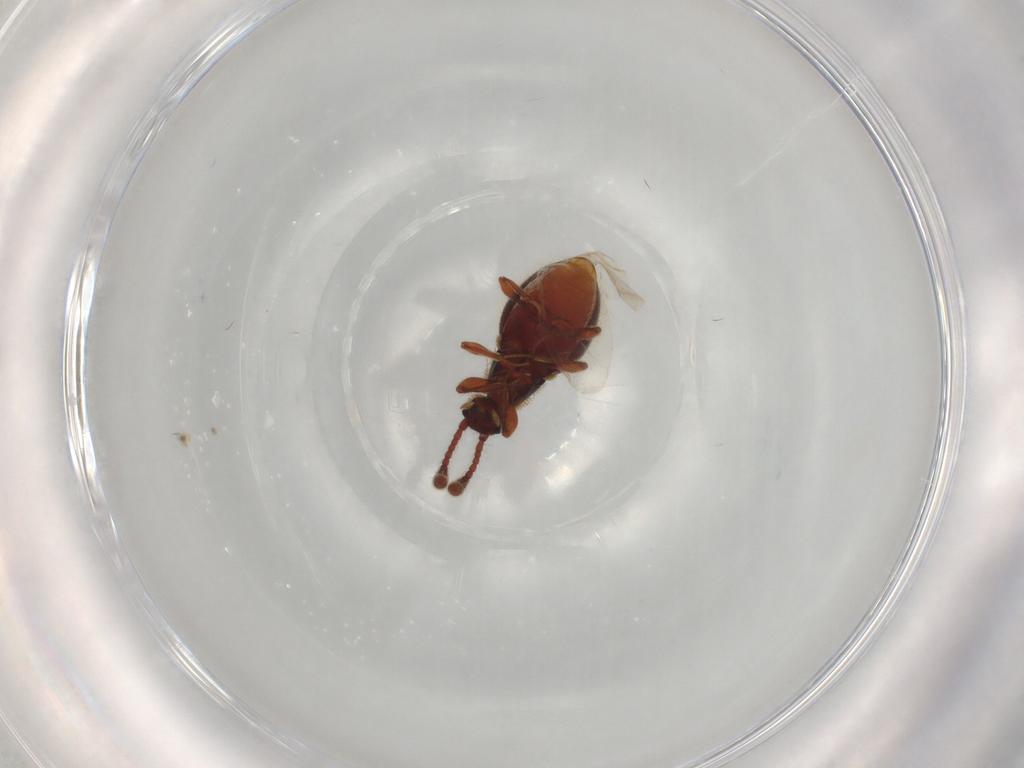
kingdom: Animalia
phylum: Arthropoda
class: Insecta
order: Coleoptera
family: Staphylinidae
